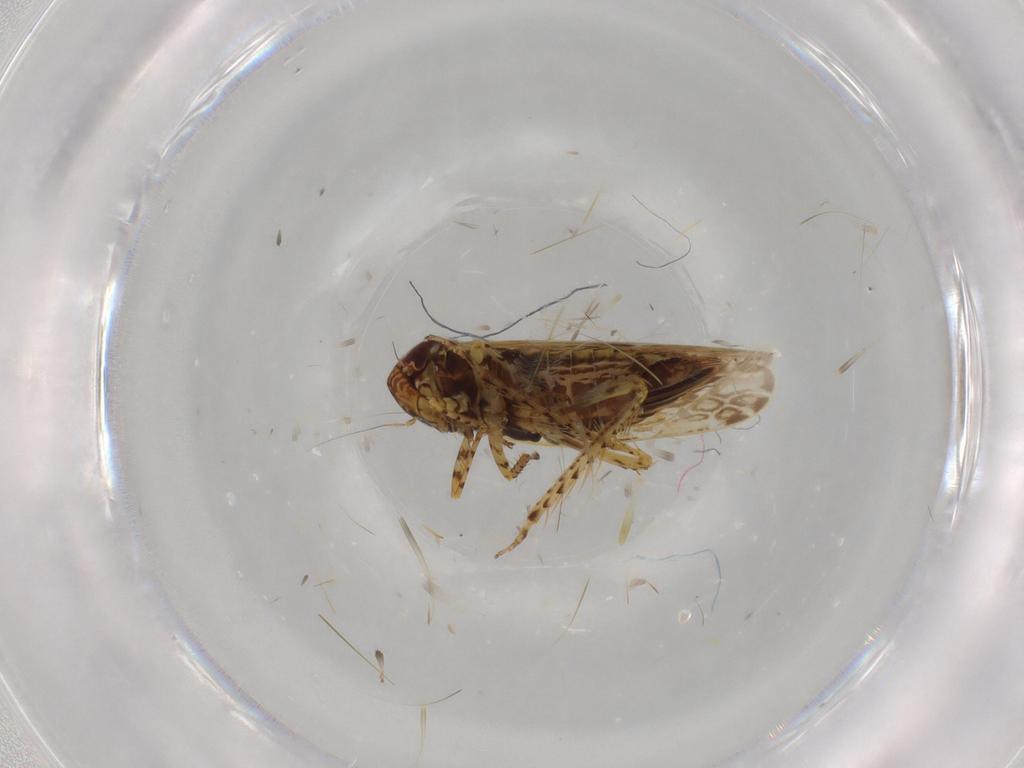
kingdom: Animalia
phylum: Arthropoda
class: Insecta
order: Hemiptera
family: Cicadellidae
